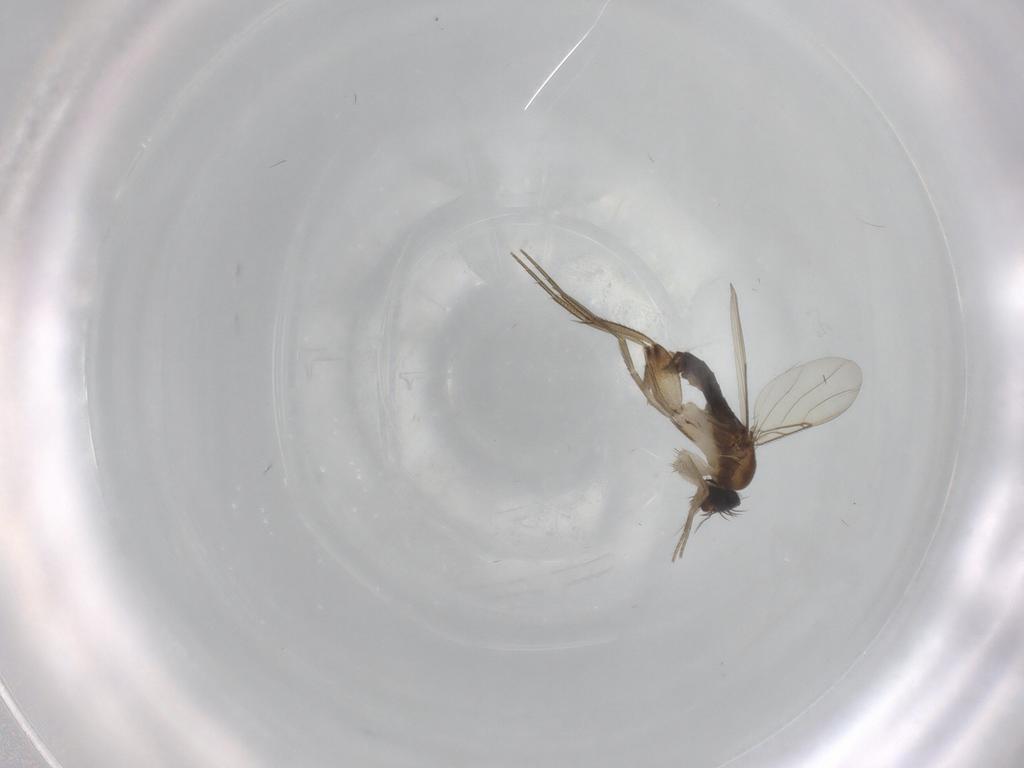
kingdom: Animalia
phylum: Arthropoda
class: Insecta
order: Diptera
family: Phoridae
